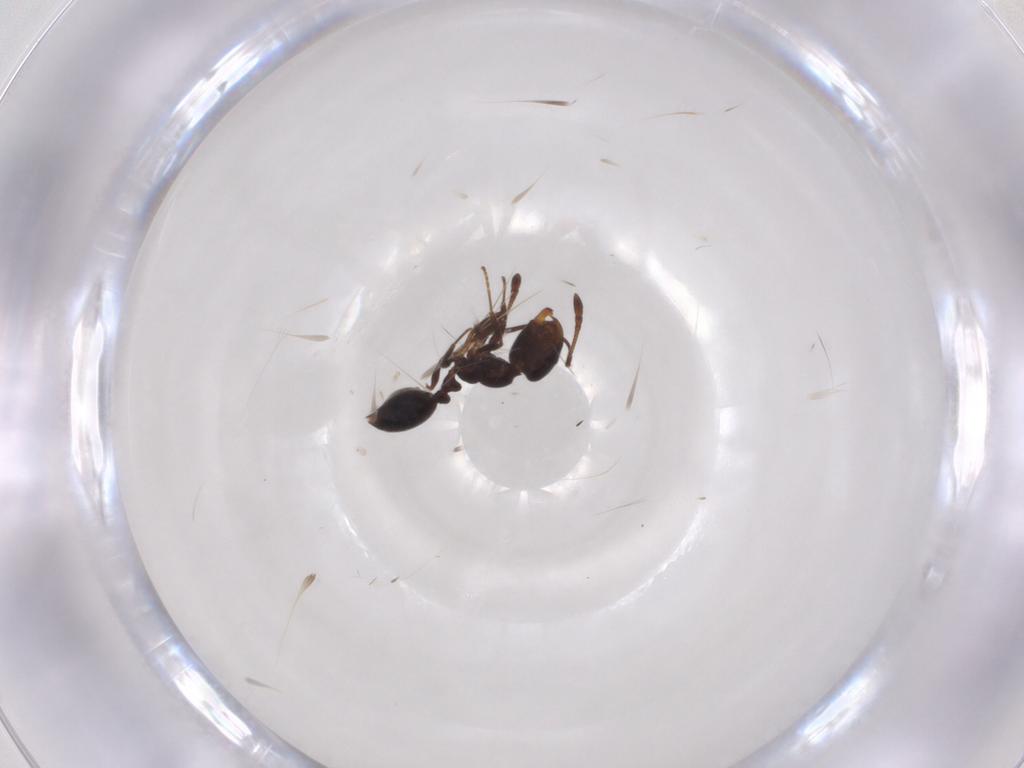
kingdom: Animalia
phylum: Arthropoda
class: Insecta
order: Hymenoptera
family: Formicidae
